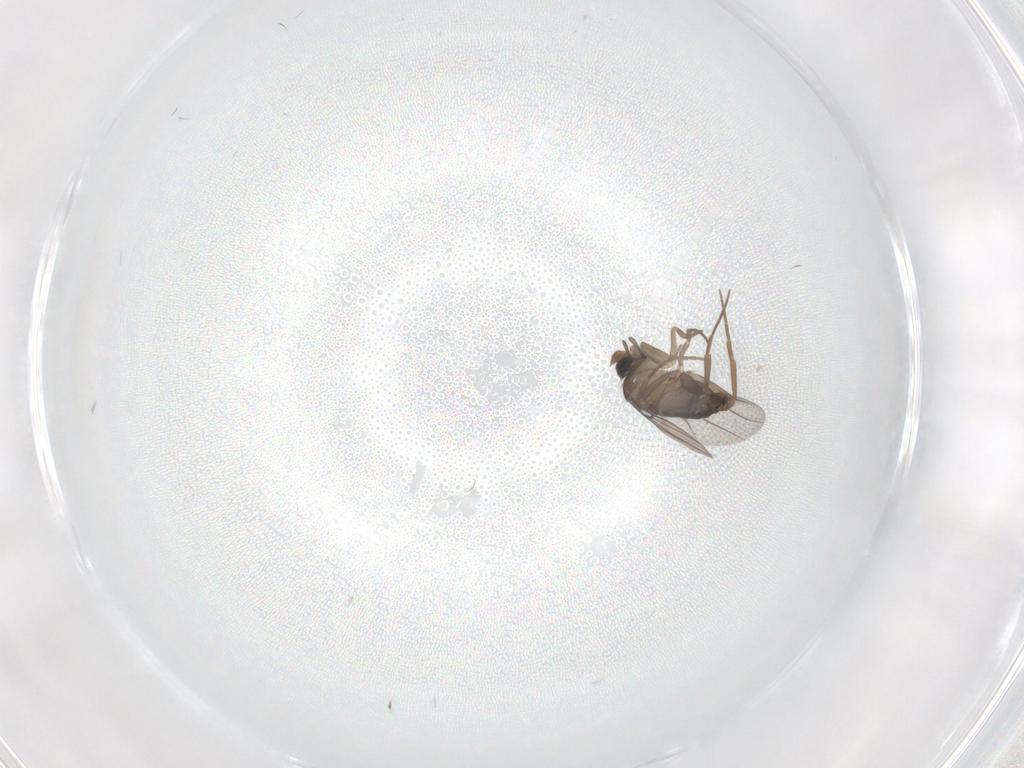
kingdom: Animalia
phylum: Arthropoda
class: Insecta
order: Diptera
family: Phoridae
